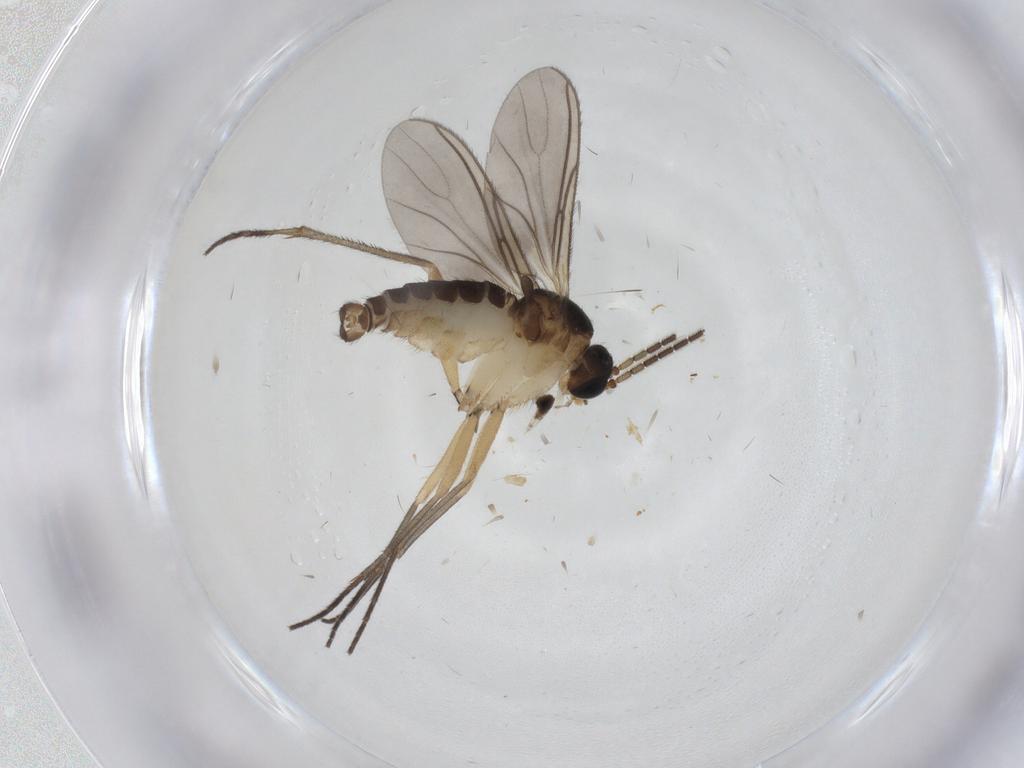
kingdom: Animalia
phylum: Arthropoda
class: Insecta
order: Diptera
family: Sciaridae
